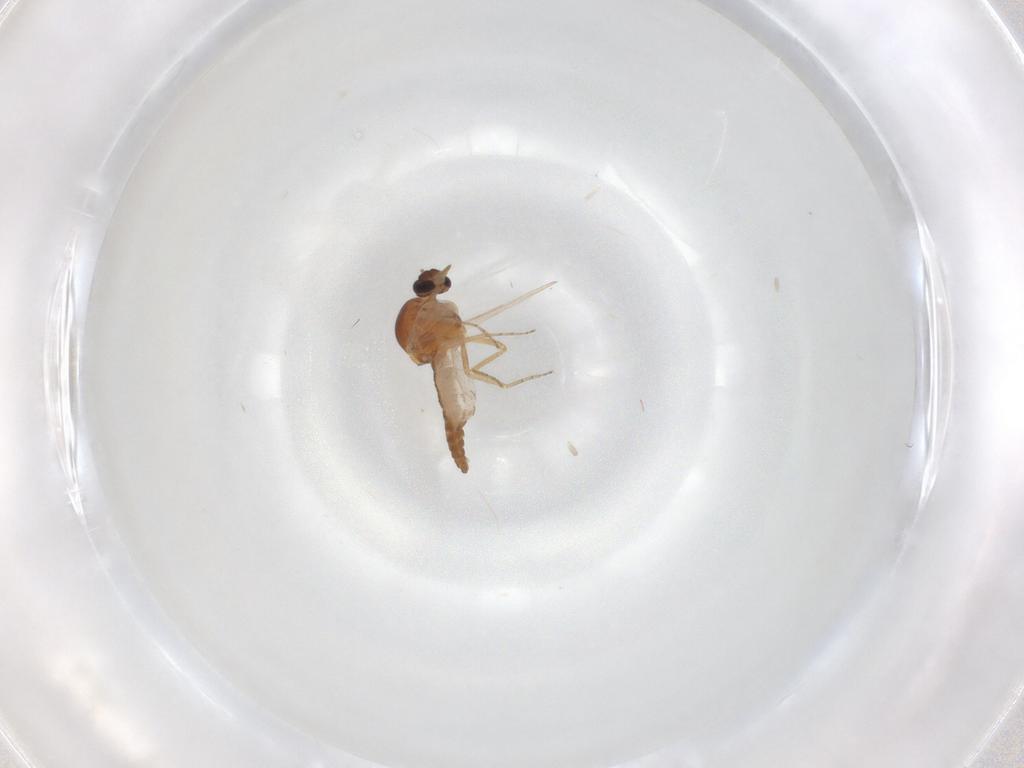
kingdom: Animalia
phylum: Arthropoda
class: Insecta
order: Diptera
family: Ceratopogonidae
